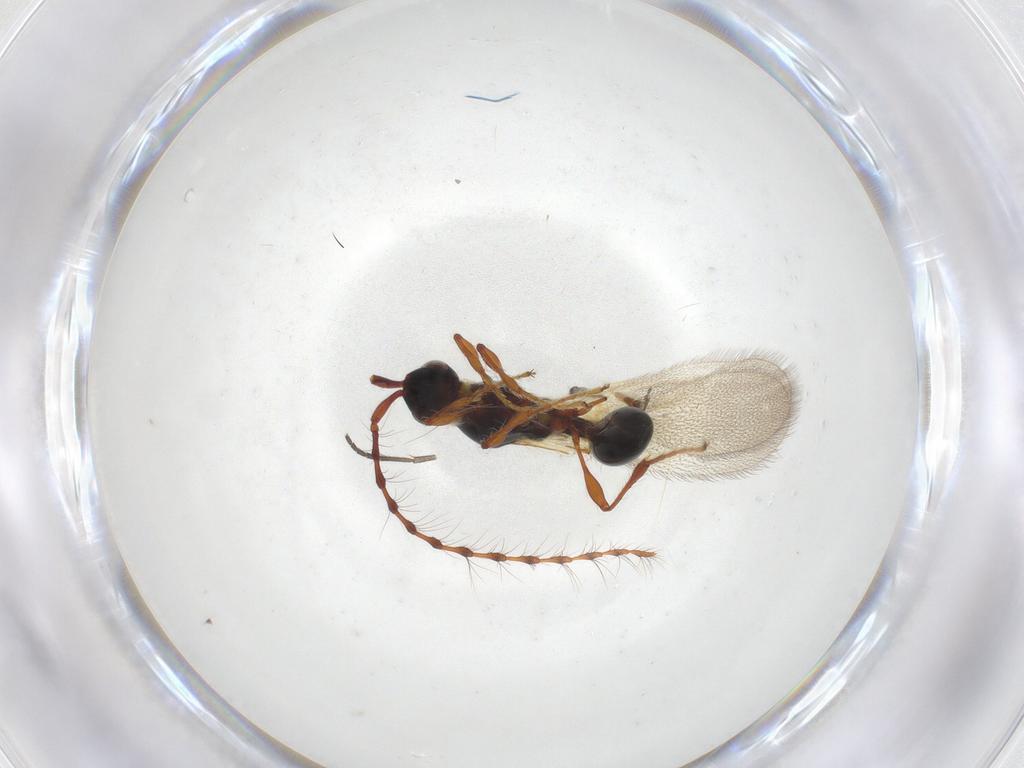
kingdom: Animalia
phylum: Arthropoda
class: Insecta
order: Hymenoptera
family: Ichneumonidae
